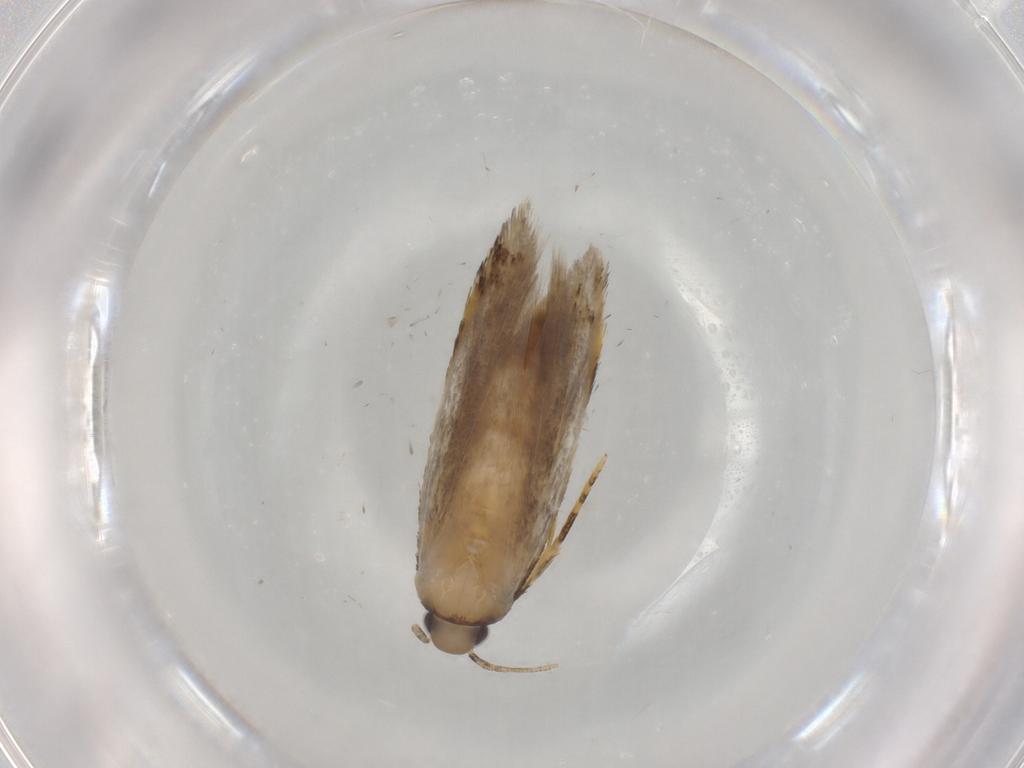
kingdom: Animalia
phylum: Arthropoda
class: Insecta
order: Lepidoptera
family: Autostichidae
